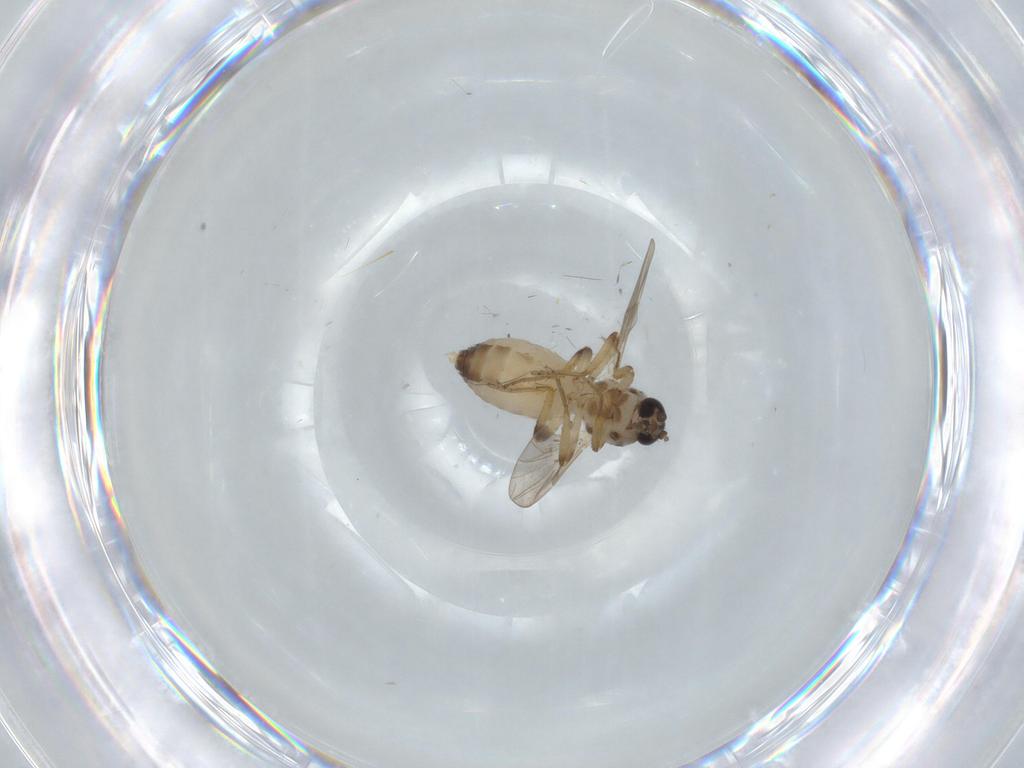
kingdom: Animalia
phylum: Arthropoda
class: Insecta
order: Diptera
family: Ceratopogonidae
